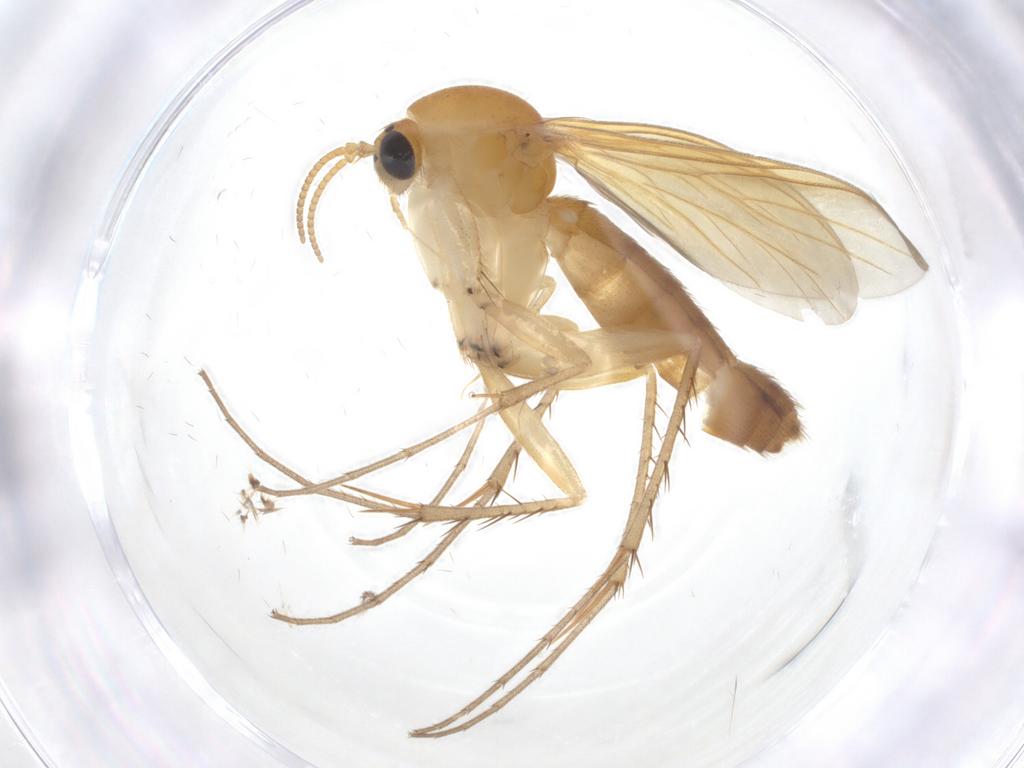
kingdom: Animalia
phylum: Arthropoda
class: Insecta
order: Diptera
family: Mycetophilidae
